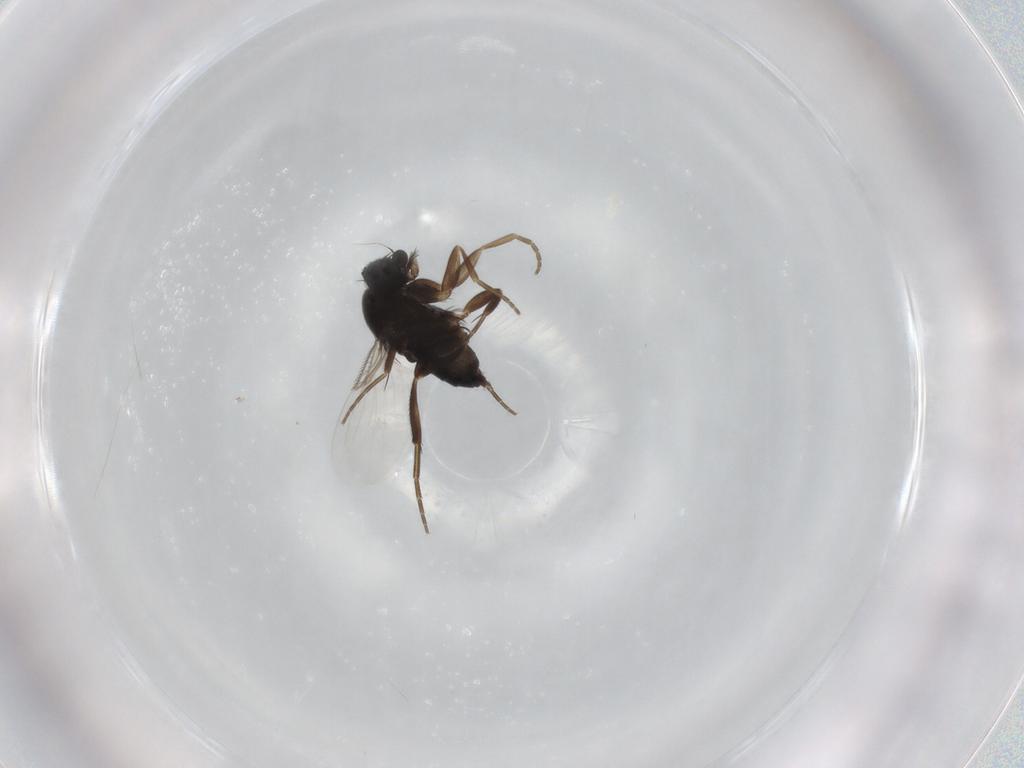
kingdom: Animalia
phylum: Arthropoda
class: Insecta
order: Diptera
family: Phoridae
